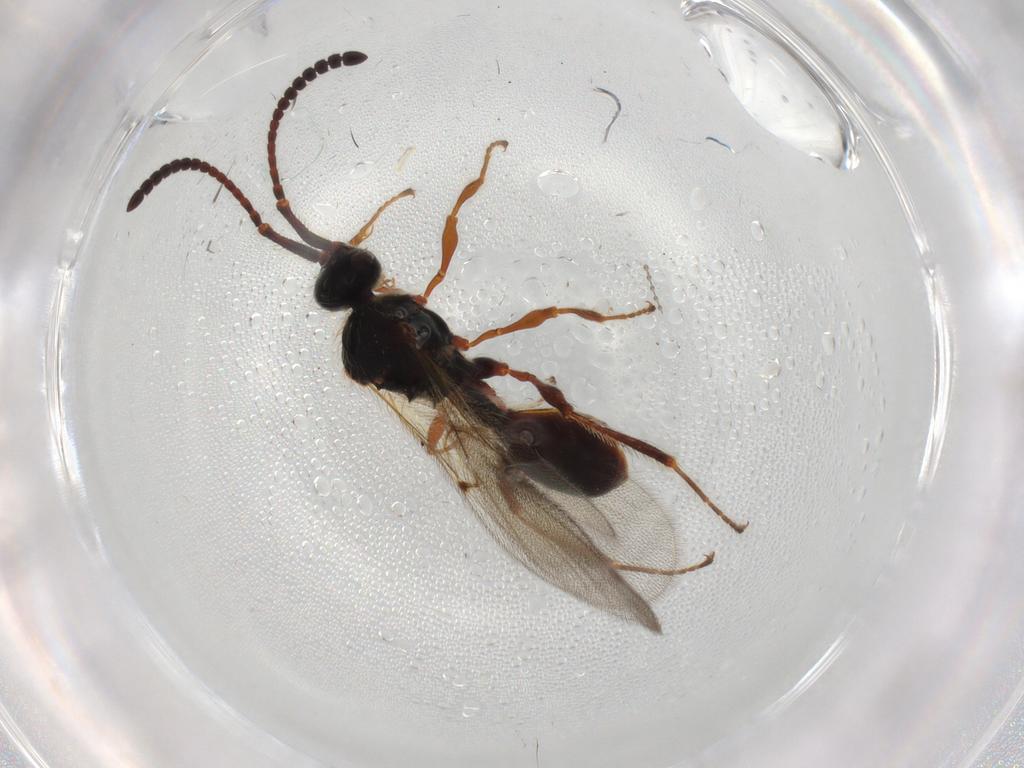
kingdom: Animalia
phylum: Arthropoda
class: Insecta
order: Hymenoptera
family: Diapriidae
